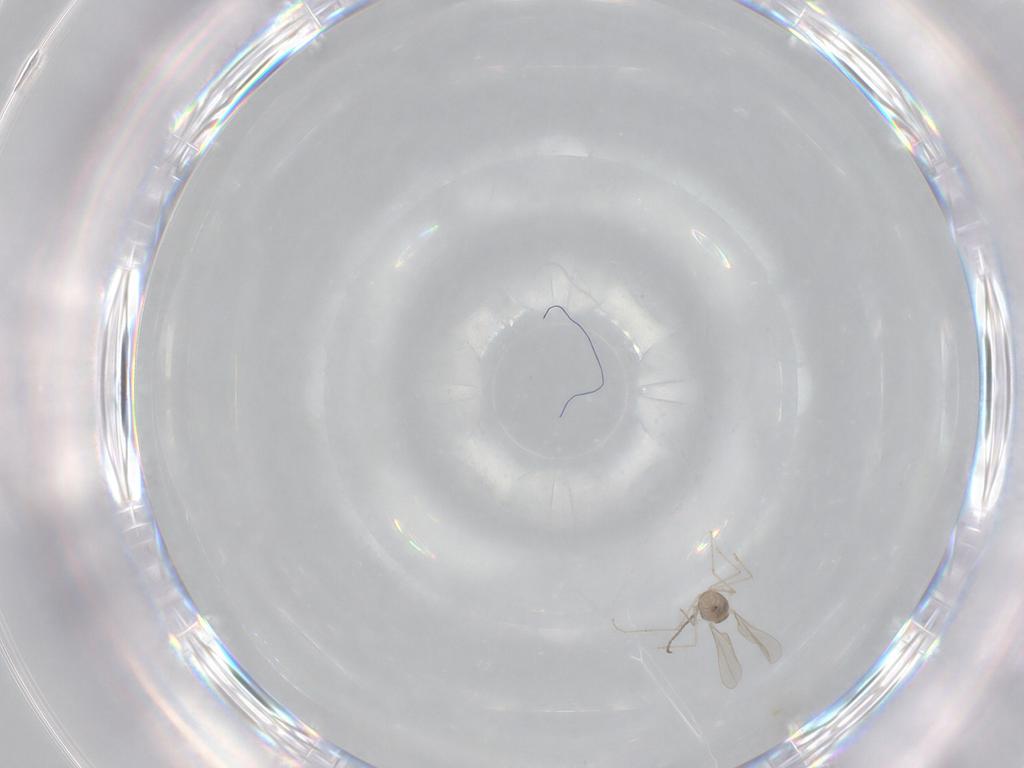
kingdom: Animalia
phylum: Arthropoda
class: Insecta
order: Diptera
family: Cecidomyiidae
